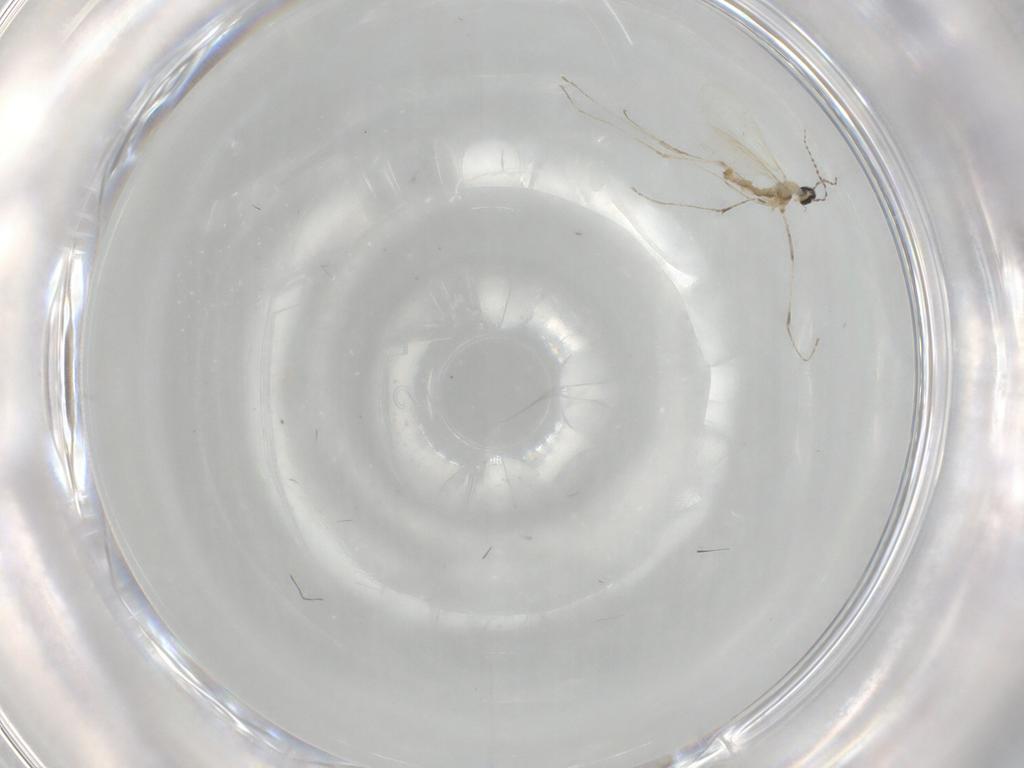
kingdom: Animalia
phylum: Arthropoda
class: Insecta
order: Diptera
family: Cecidomyiidae
